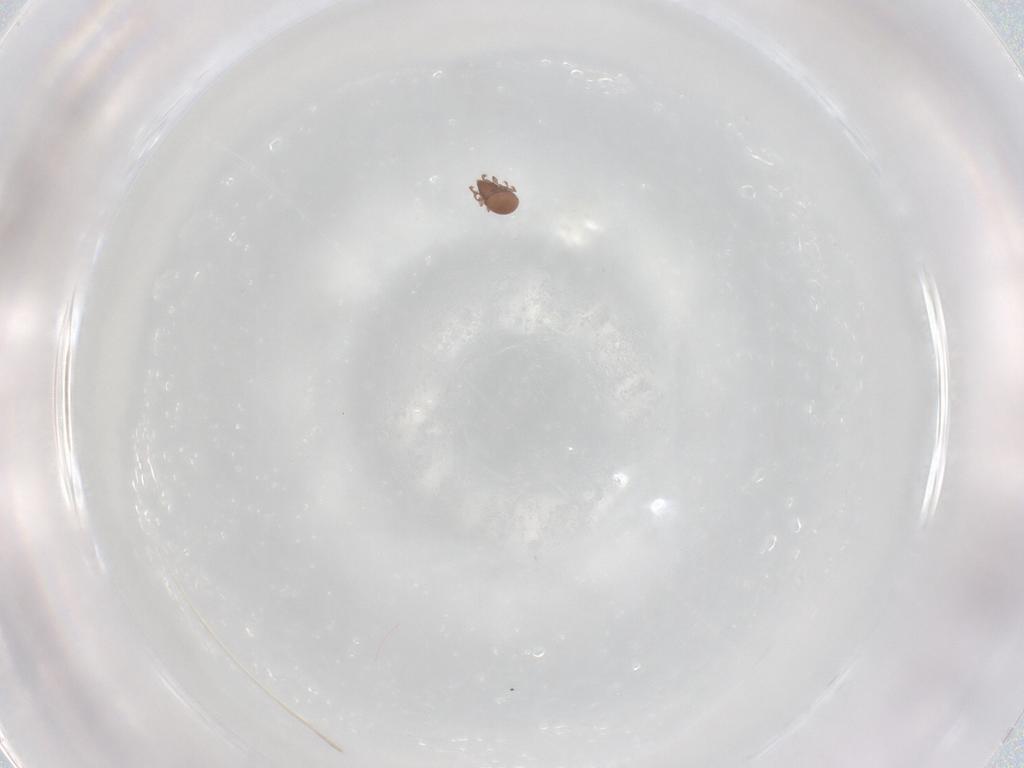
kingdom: Animalia
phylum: Arthropoda
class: Arachnida
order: Sarcoptiformes
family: Ceratoppiidae
